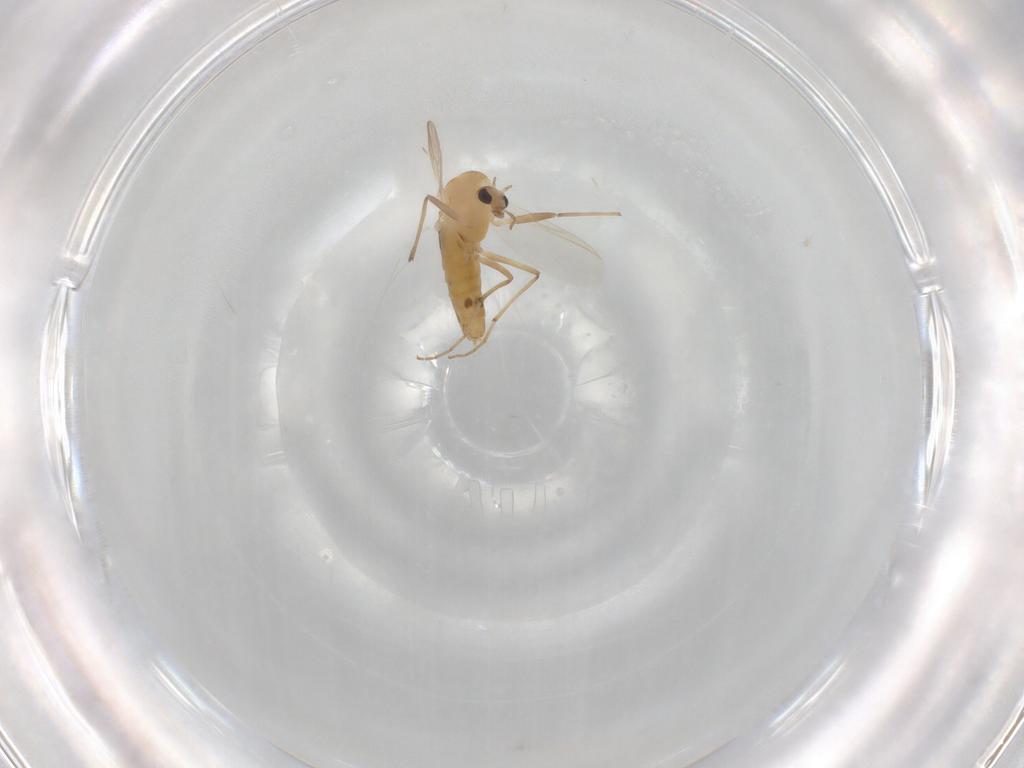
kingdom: Animalia
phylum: Arthropoda
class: Insecta
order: Diptera
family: Chironomidae
